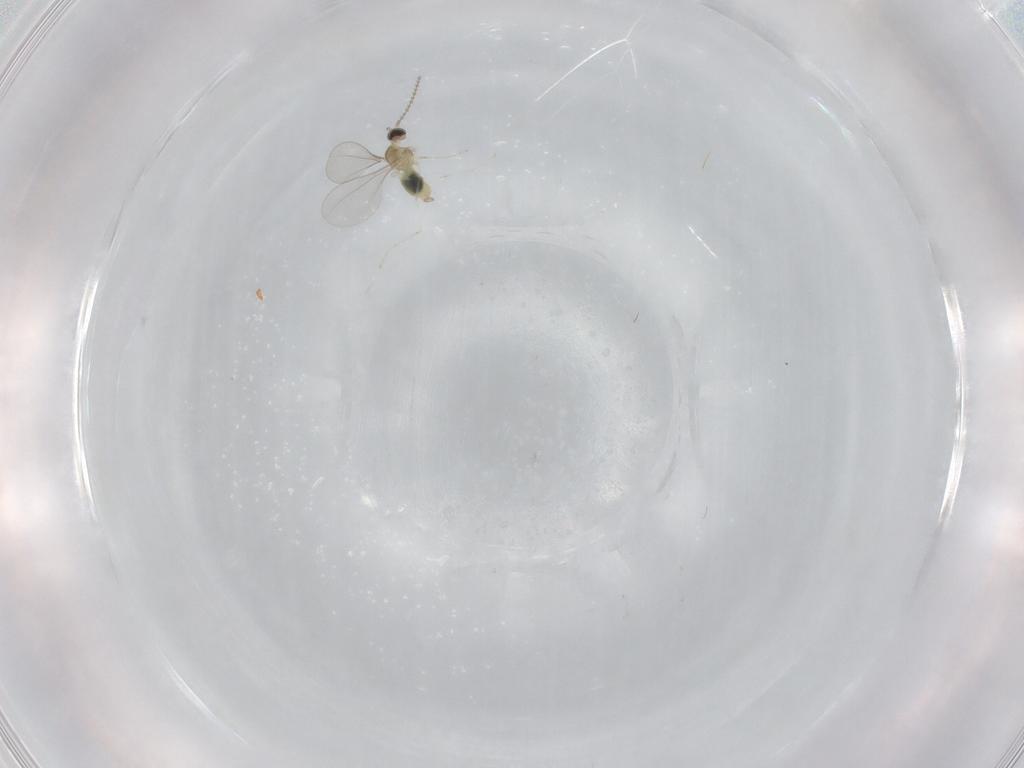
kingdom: Animalia
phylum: Arthropoda
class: Insecta
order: Diptera
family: Cecidomyiidae
